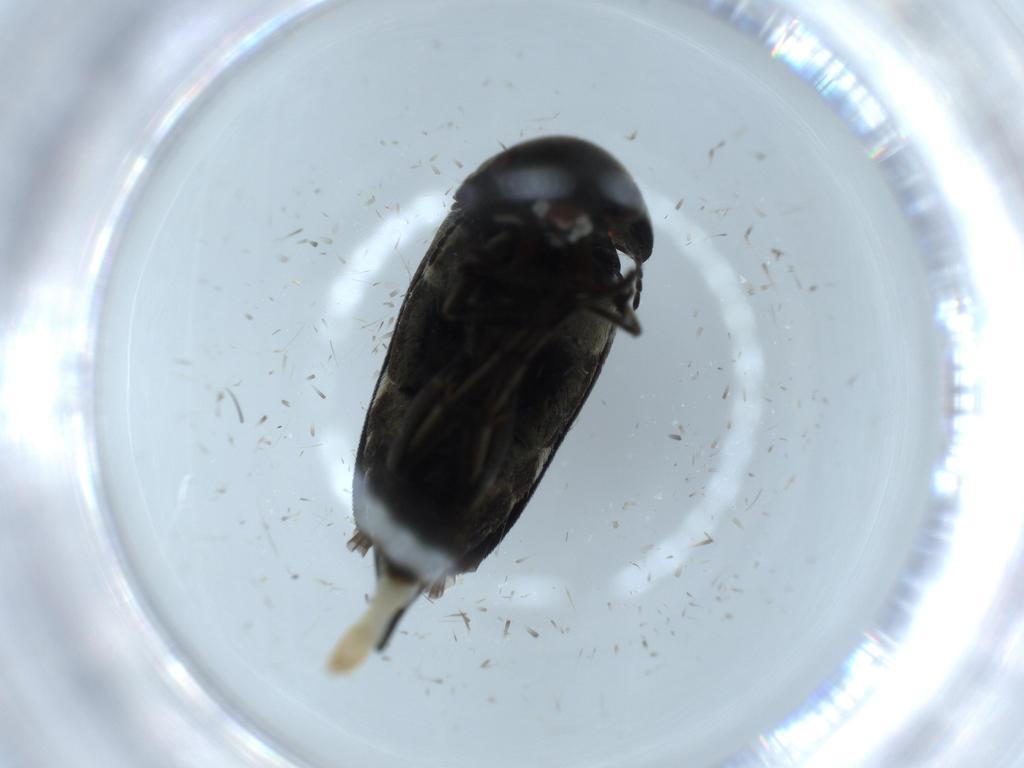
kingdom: Animalia
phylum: Arthropoda
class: Insecta
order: Coleoptera
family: Mordellidae
